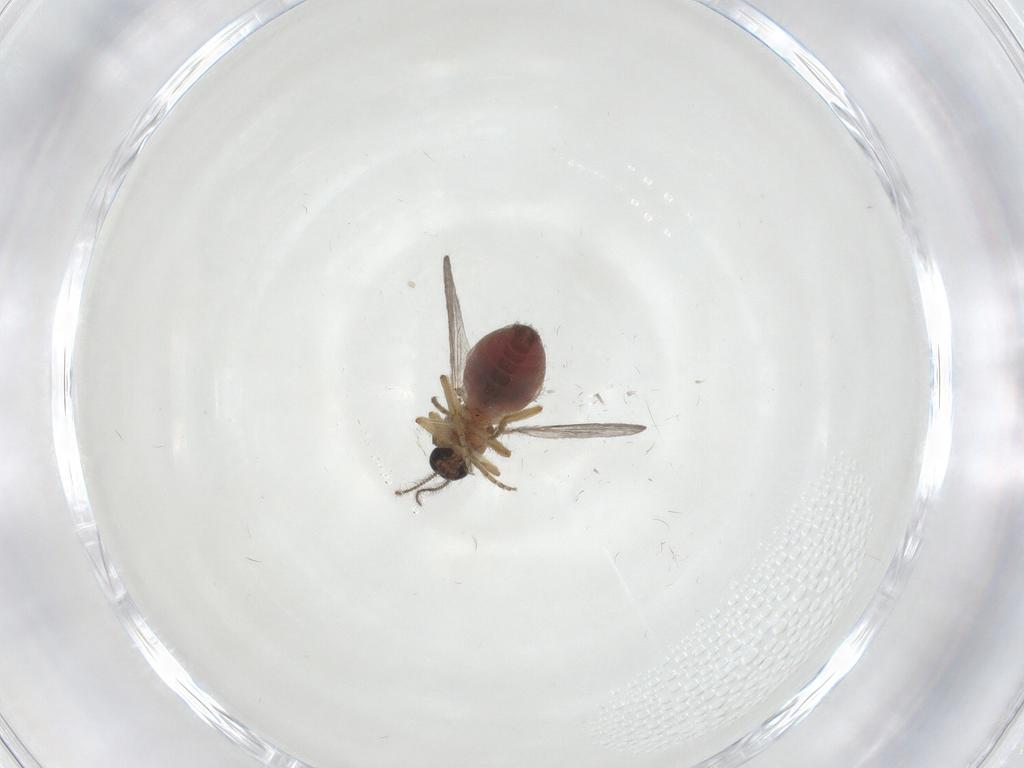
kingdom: Animalia
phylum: Arthropoda
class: Insecta
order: Diptera
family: Ceratopogonidae
